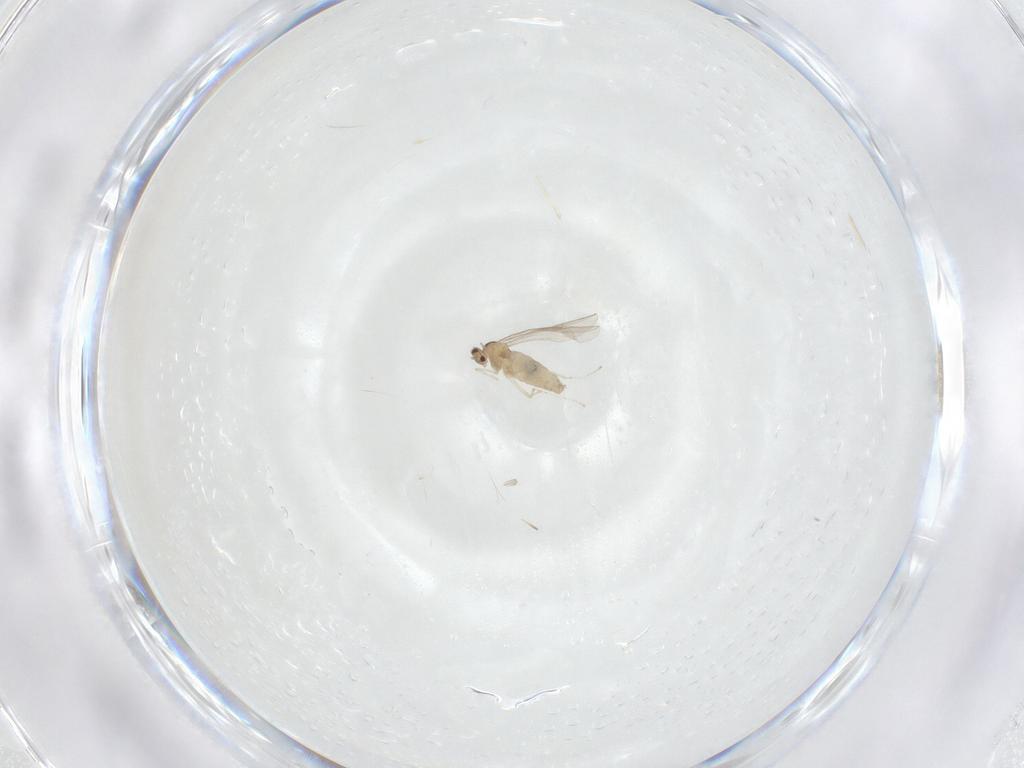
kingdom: Animalia
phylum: Arthropoda
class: Insecta
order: Diptera
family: Cecidomyiidae
